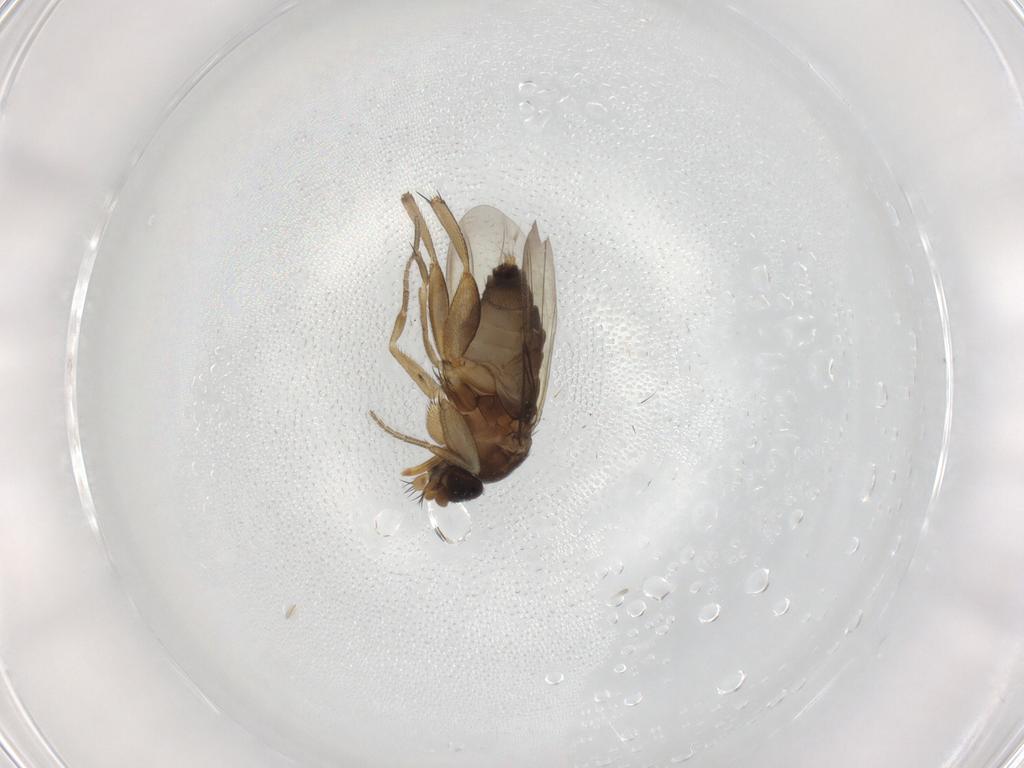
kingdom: Animalia
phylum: Arthropoda
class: Insecta
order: Diptera
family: Phoridae
